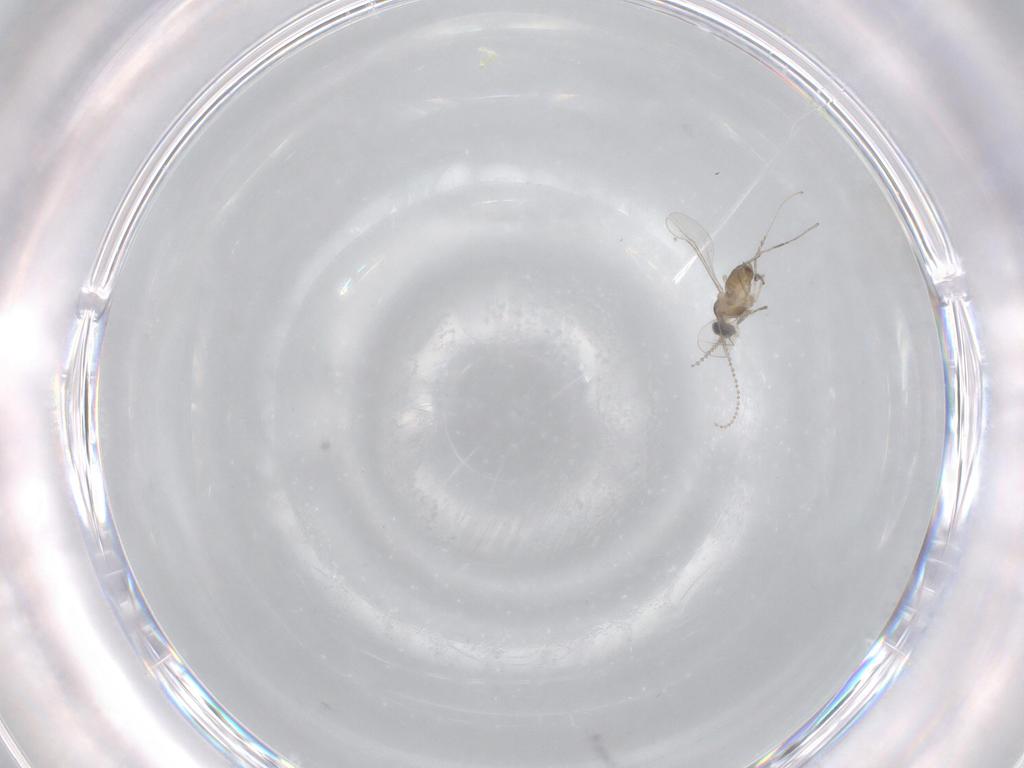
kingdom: Animalia
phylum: Arthropoda
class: Insecta
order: Diptera
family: Cecidomyiidae
